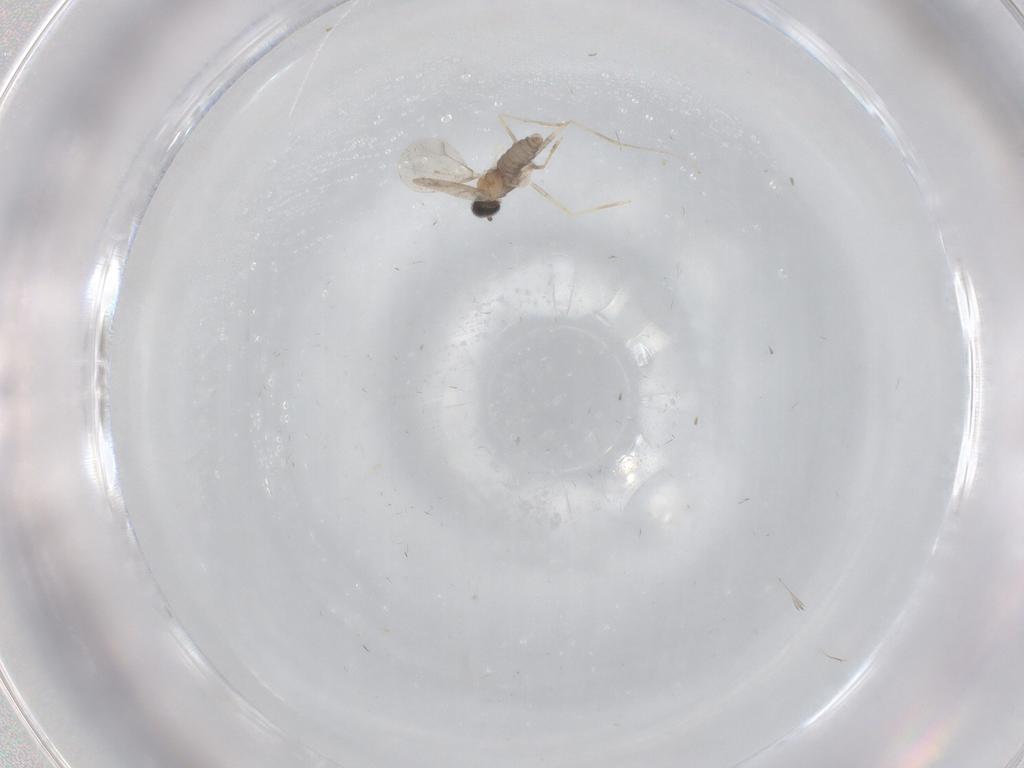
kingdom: Animalia
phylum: Arthropoda
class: Insecta
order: Diptera
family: Cecidomyiidae
